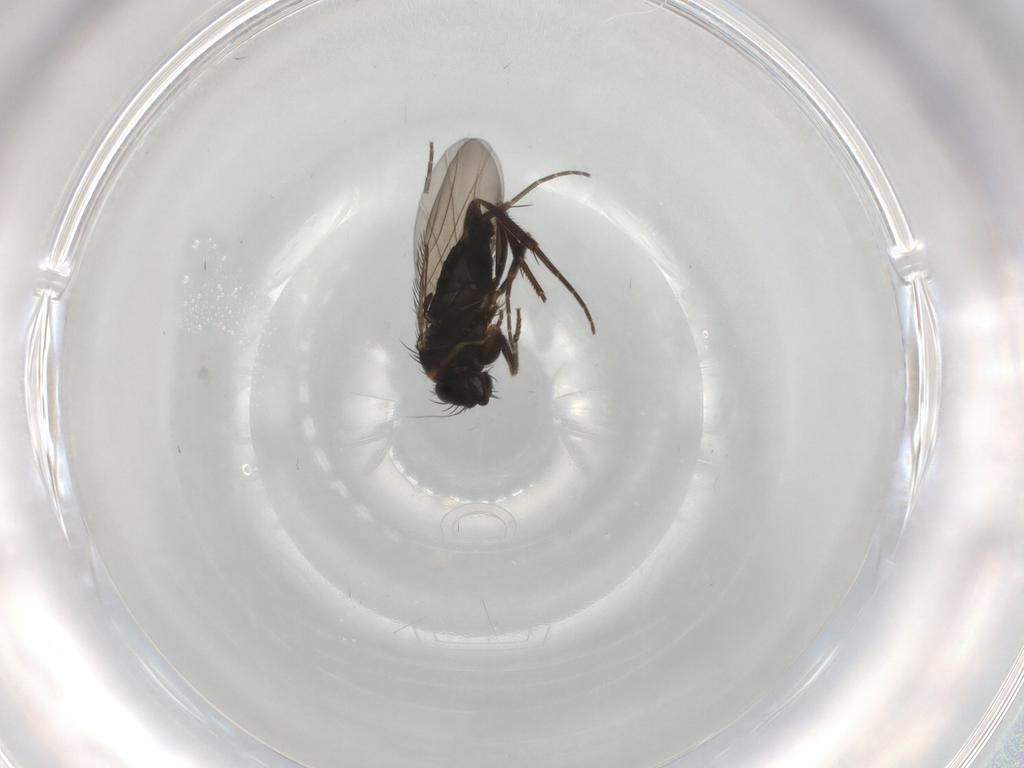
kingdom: Animalia
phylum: Arthropoda
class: Insecta
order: Diptera
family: Phoridae
